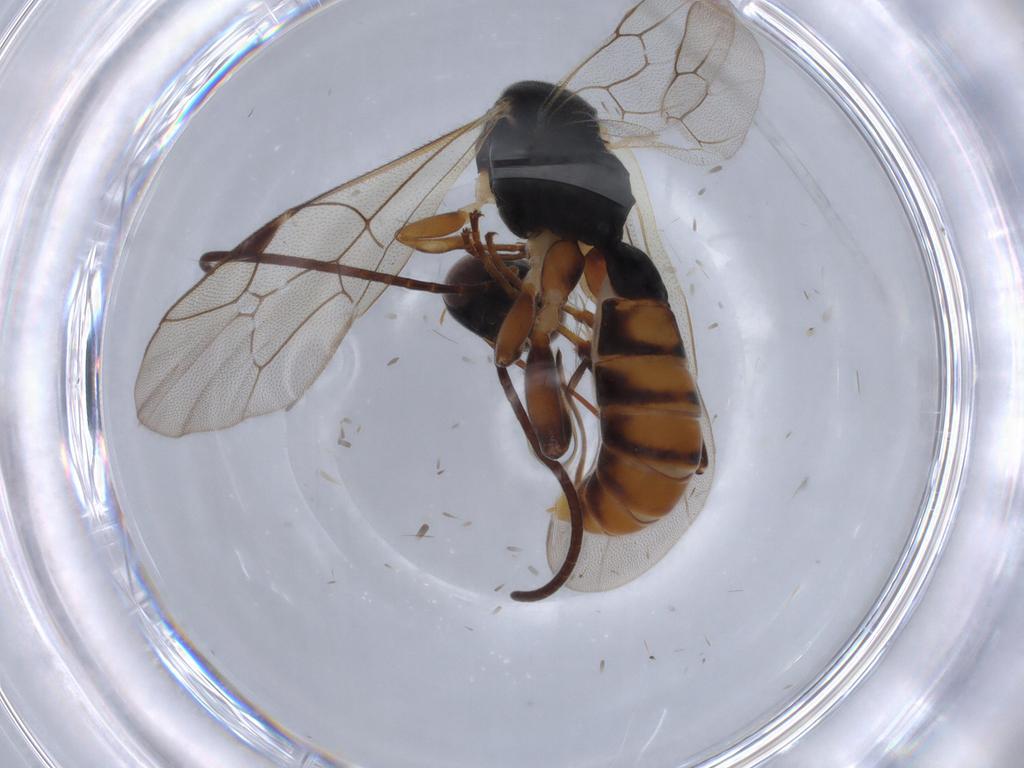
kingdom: Animalia
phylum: Arthropoda
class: Insecta
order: Hymenoptera
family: Ichneumonidae
